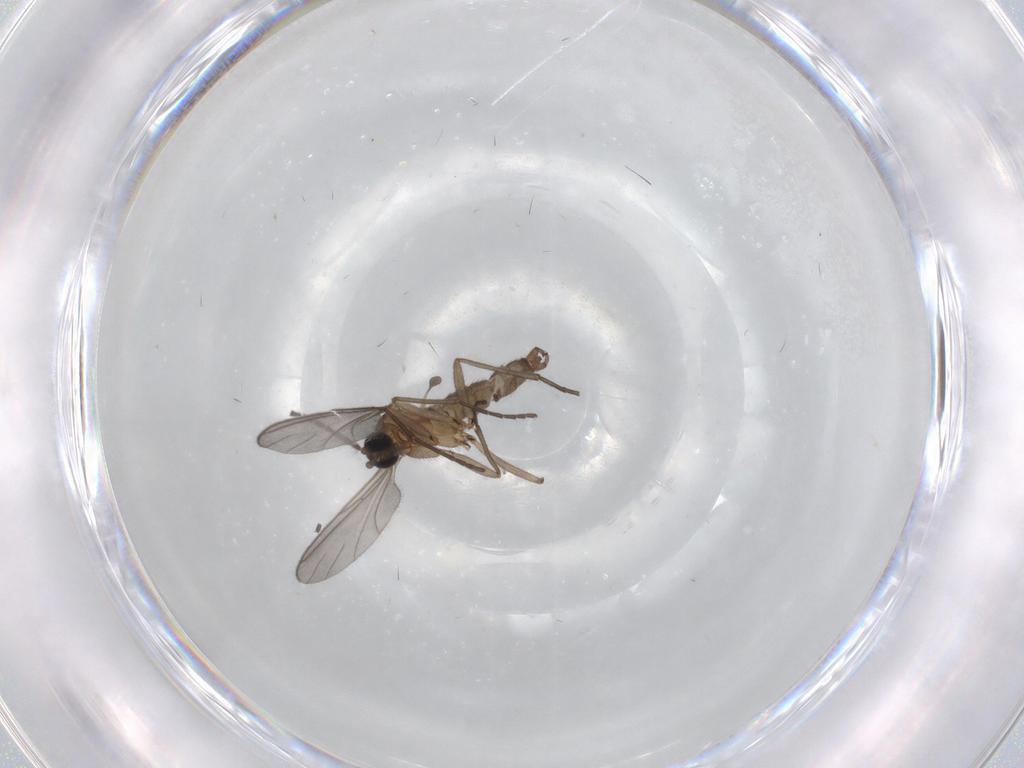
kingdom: Animalia
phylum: Arthropoda
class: Insecta
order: Diptera
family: Sciaridae
